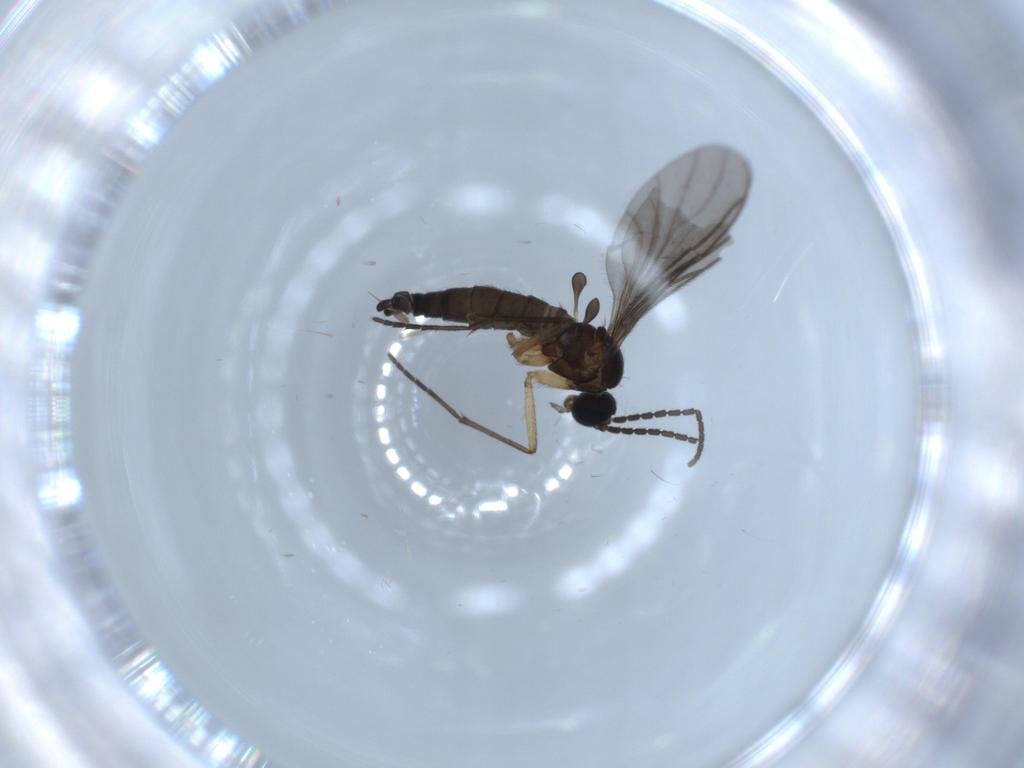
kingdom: Animalia
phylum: Arthropoda
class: Insecta
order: Diptera
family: Sciaridae
